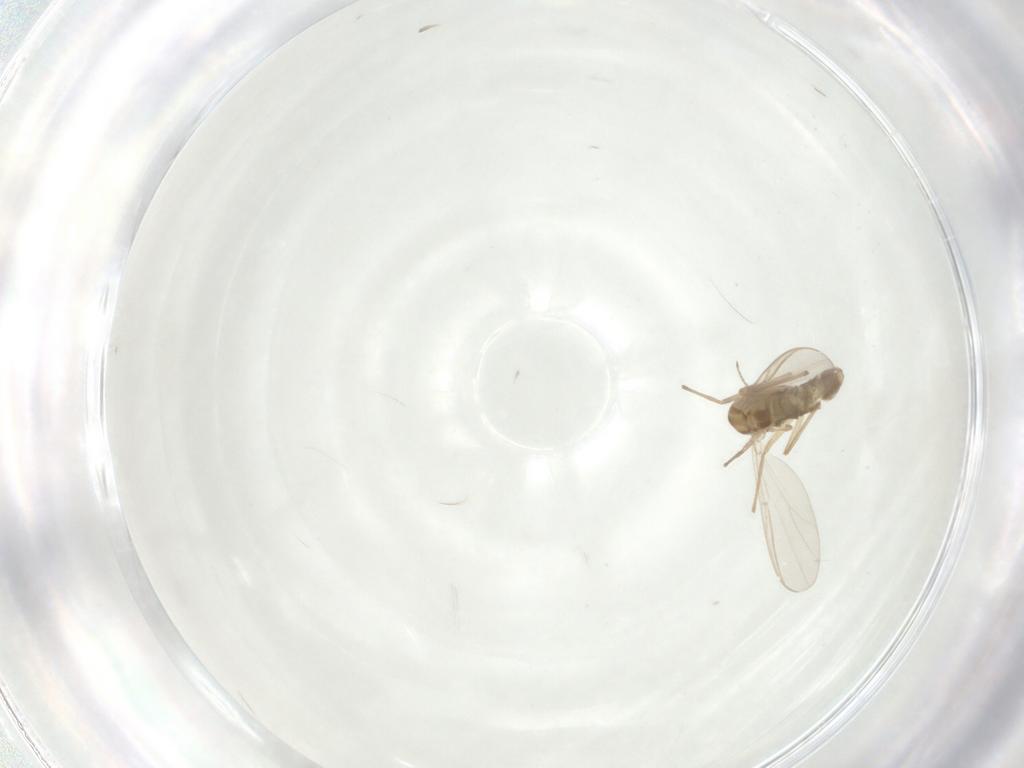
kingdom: Animalia
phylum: Arthropoda
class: Insecta
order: Diptera
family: Chironomidae
